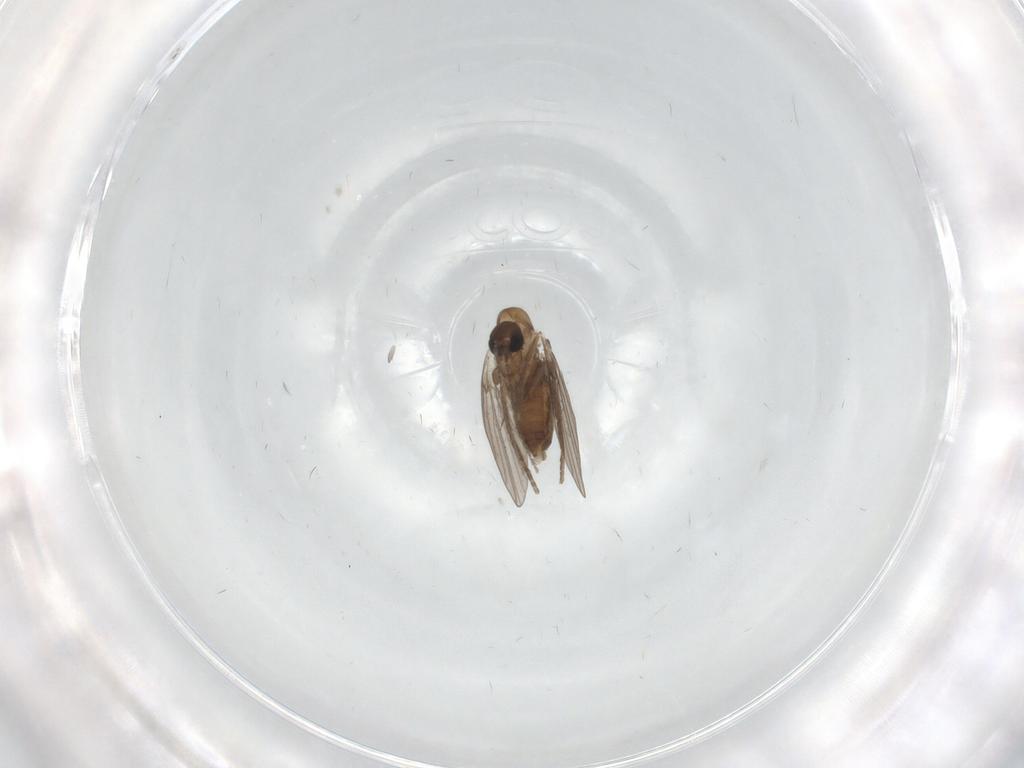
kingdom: Animalia
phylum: Arthropoda
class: Insecta
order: Diptera
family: Phoridae
